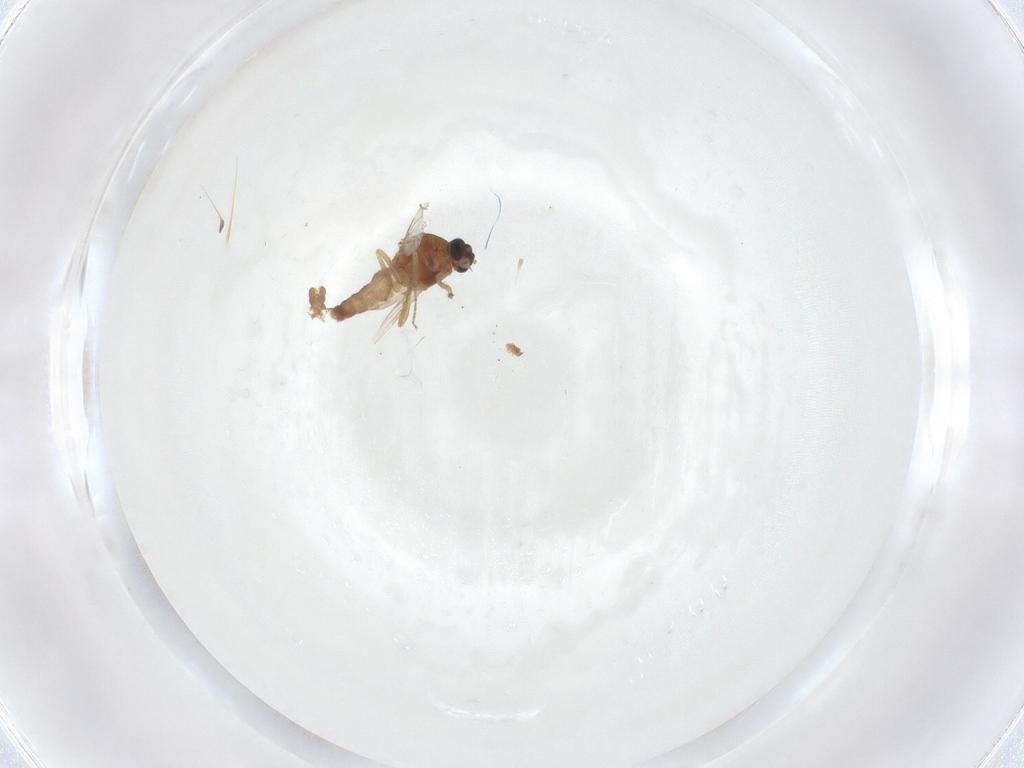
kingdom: Animalia
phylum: Arthropoda
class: Insecta
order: Diptera
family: Ceratopogonidae
